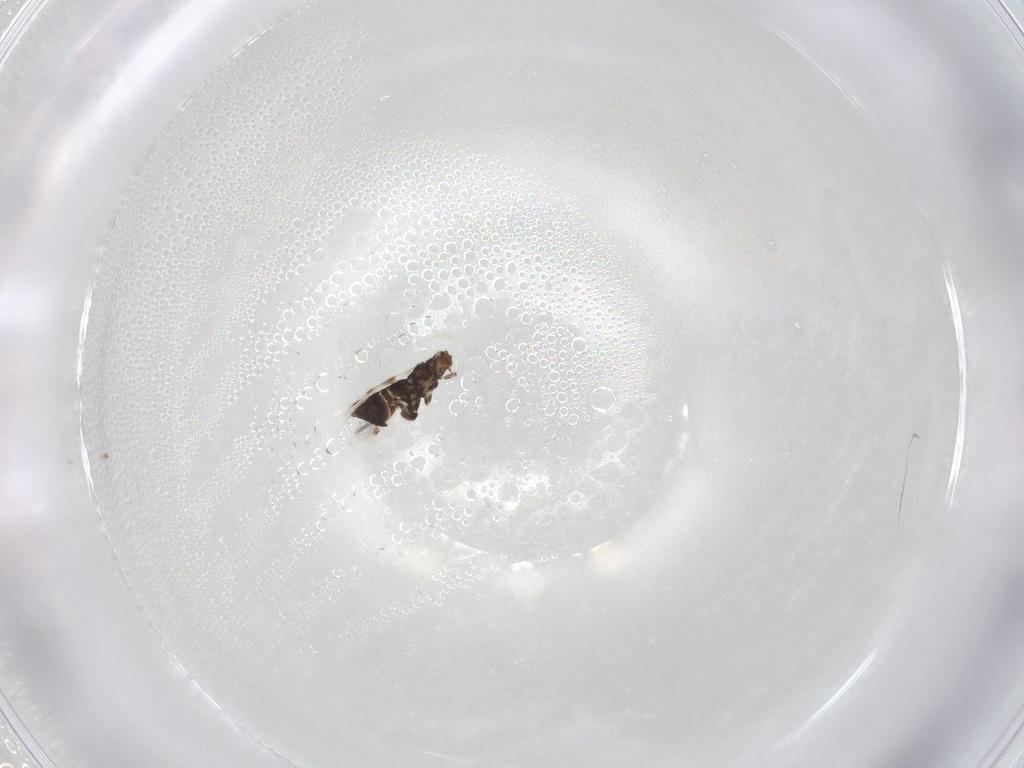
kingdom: Animalia
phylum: Arthropoda
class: Insecta
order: Thysanoptera
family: Thripidae
